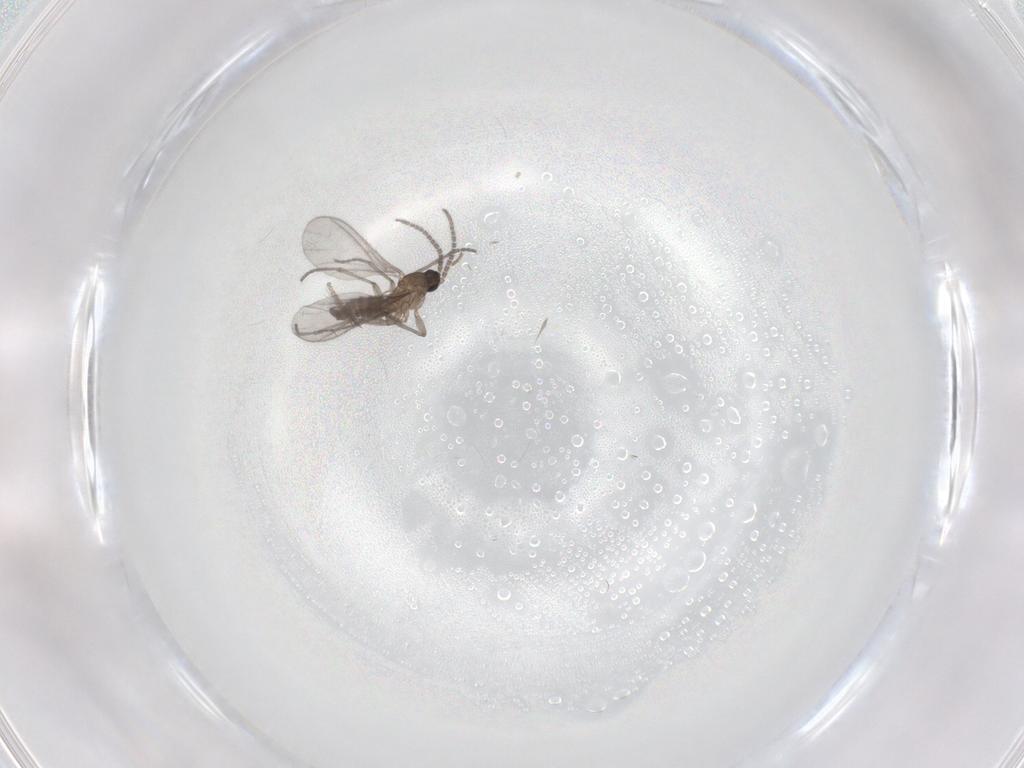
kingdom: Animalia
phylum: Arthropoda
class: Insecta
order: Diptera
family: Sciaridae
